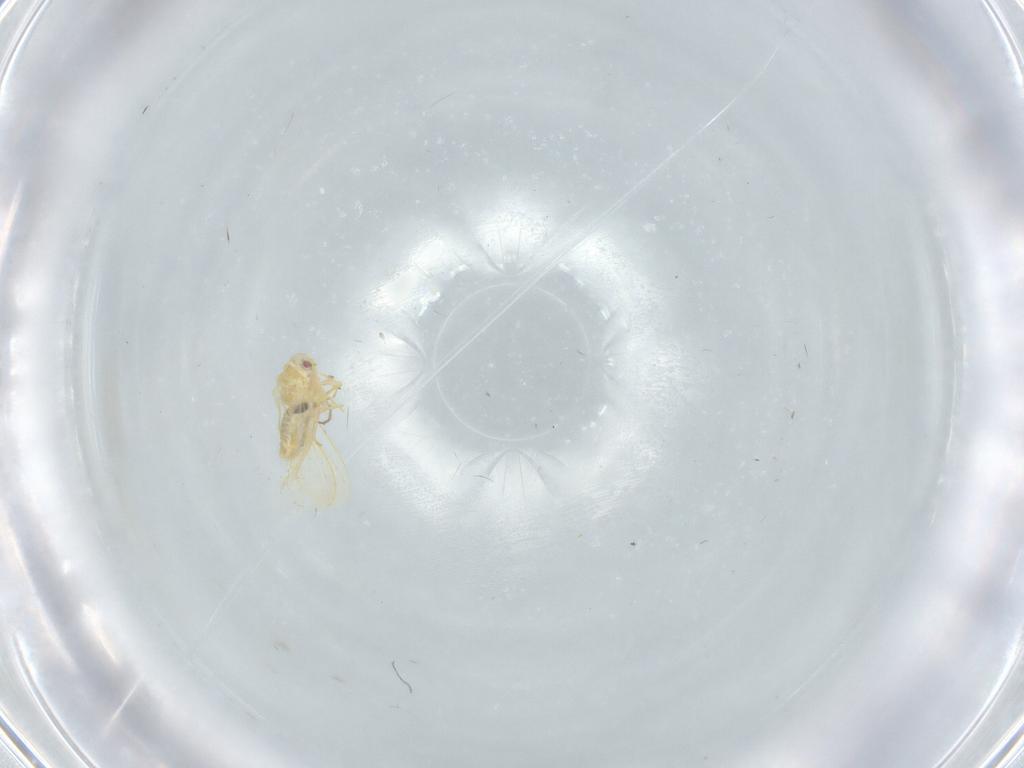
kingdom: Animalia
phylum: Arthropoda
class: Insecta
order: Hemiptera
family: Aleyrodidae
